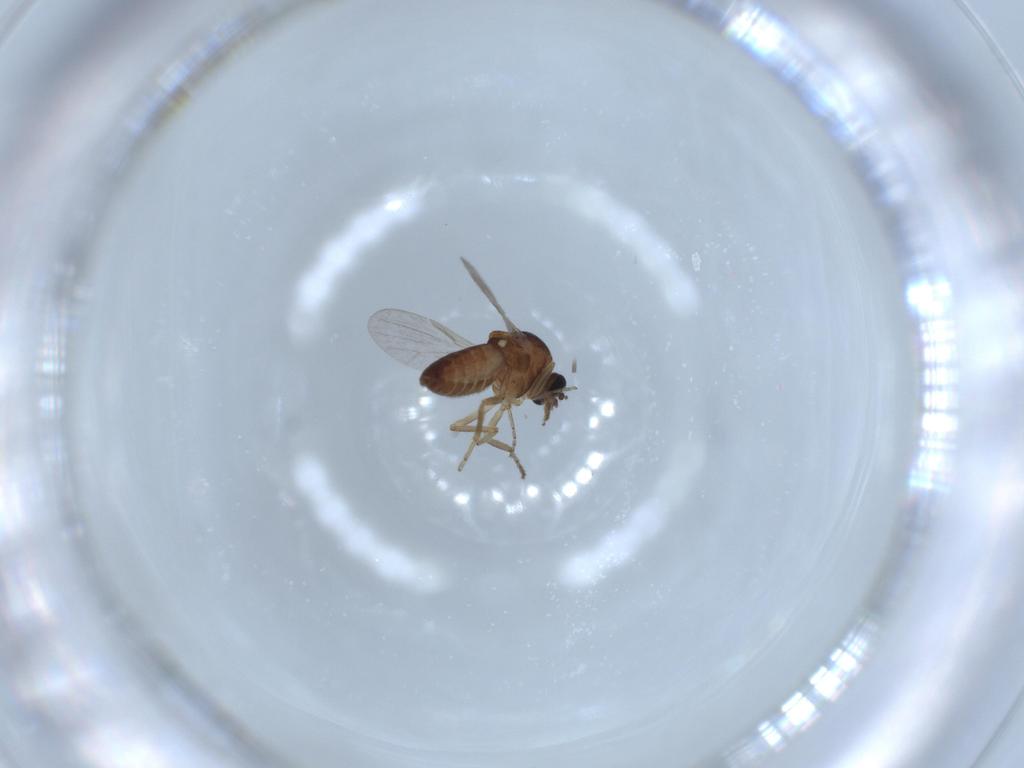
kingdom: Animalia
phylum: Arthropoda
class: Insecta
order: Diptera
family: Ceratopogonidae
